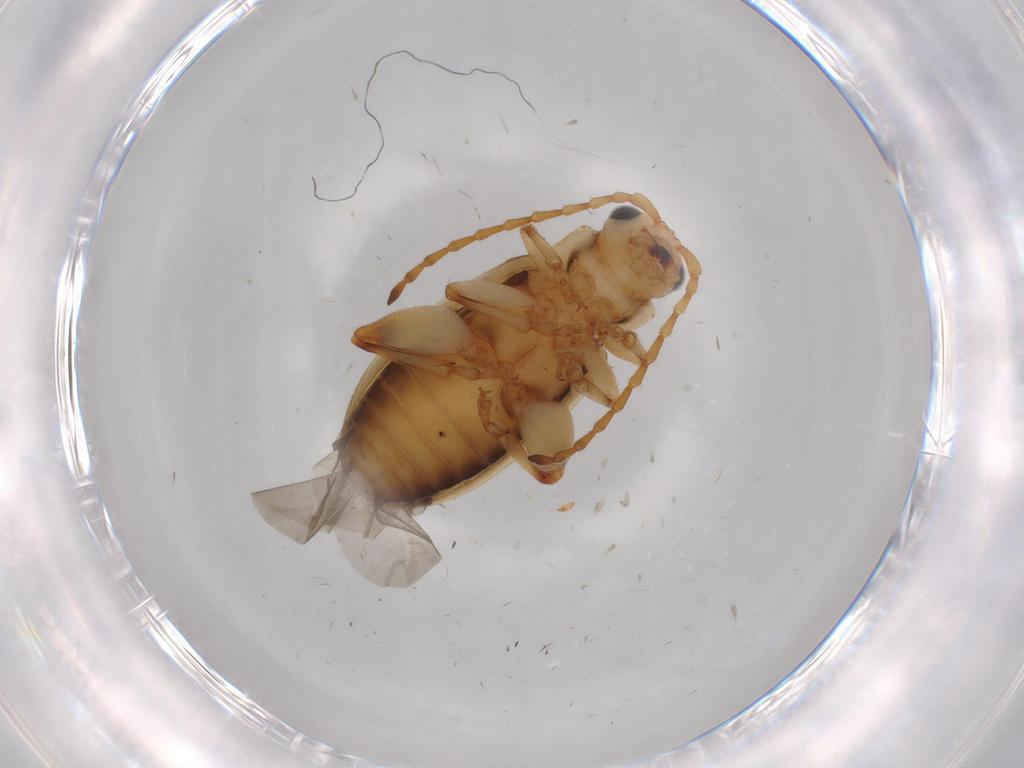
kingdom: Animalia
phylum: Arthropoda
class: Insecta
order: Coleoptera
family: Chrysomelidae
